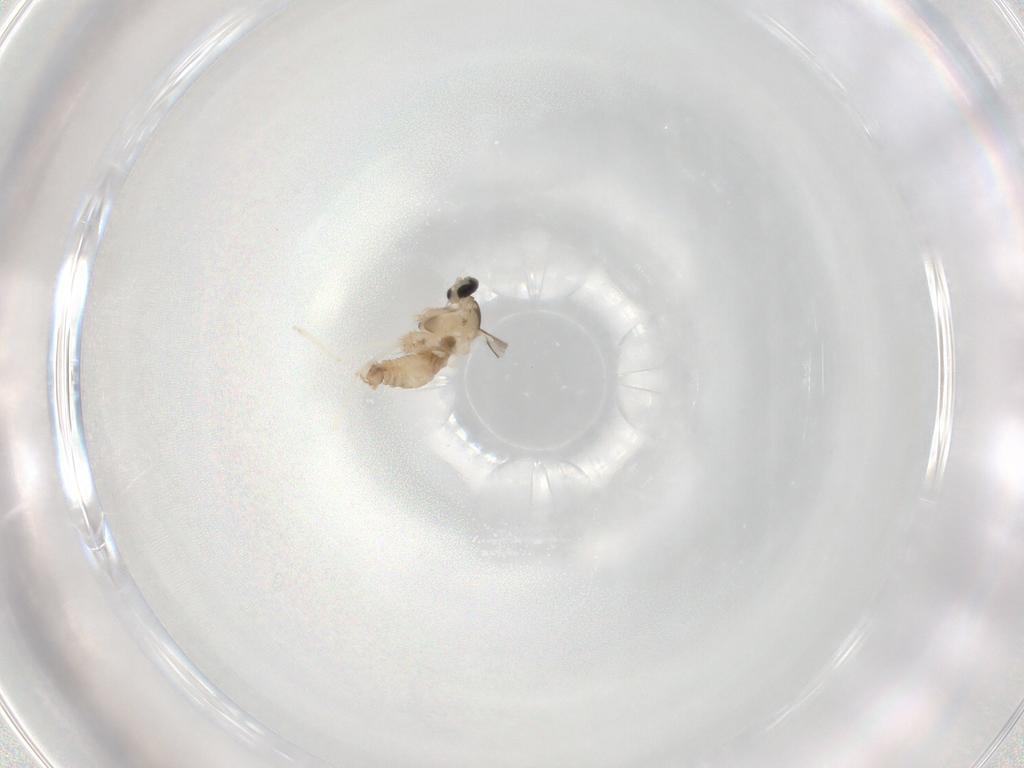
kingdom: Animalia
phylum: Arthropoda
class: Insecta
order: Diptera
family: Cecidomyiidae
